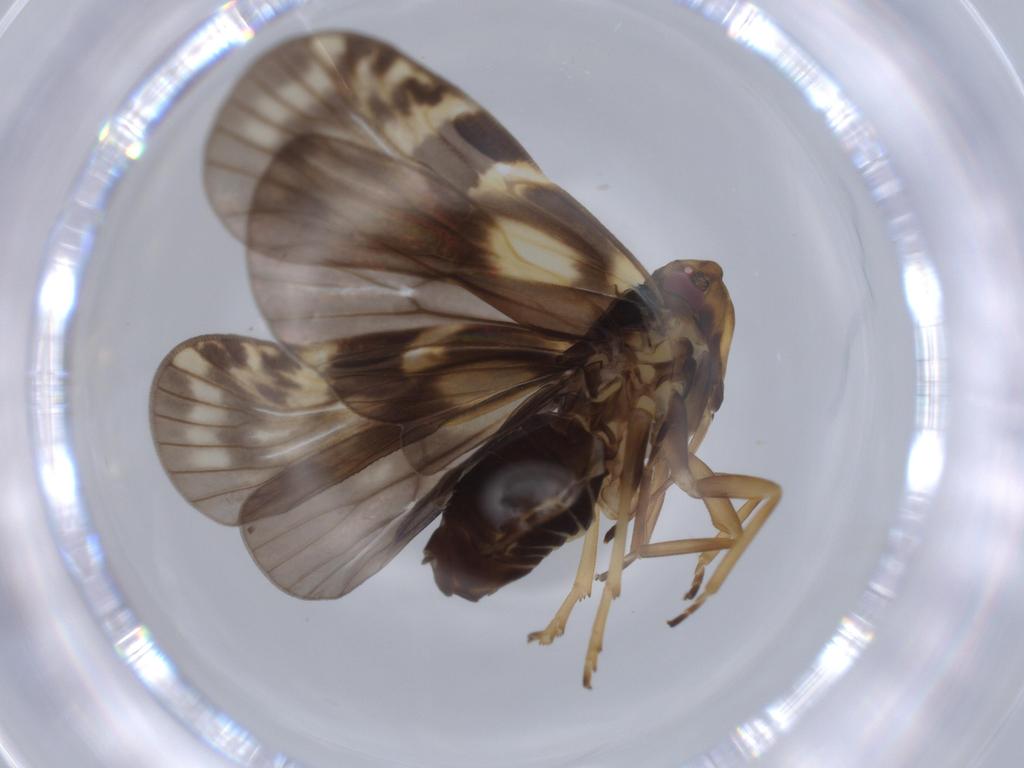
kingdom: Animalia
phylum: Arthropoda
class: Insecta
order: Hemiptera
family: Cixiidae
